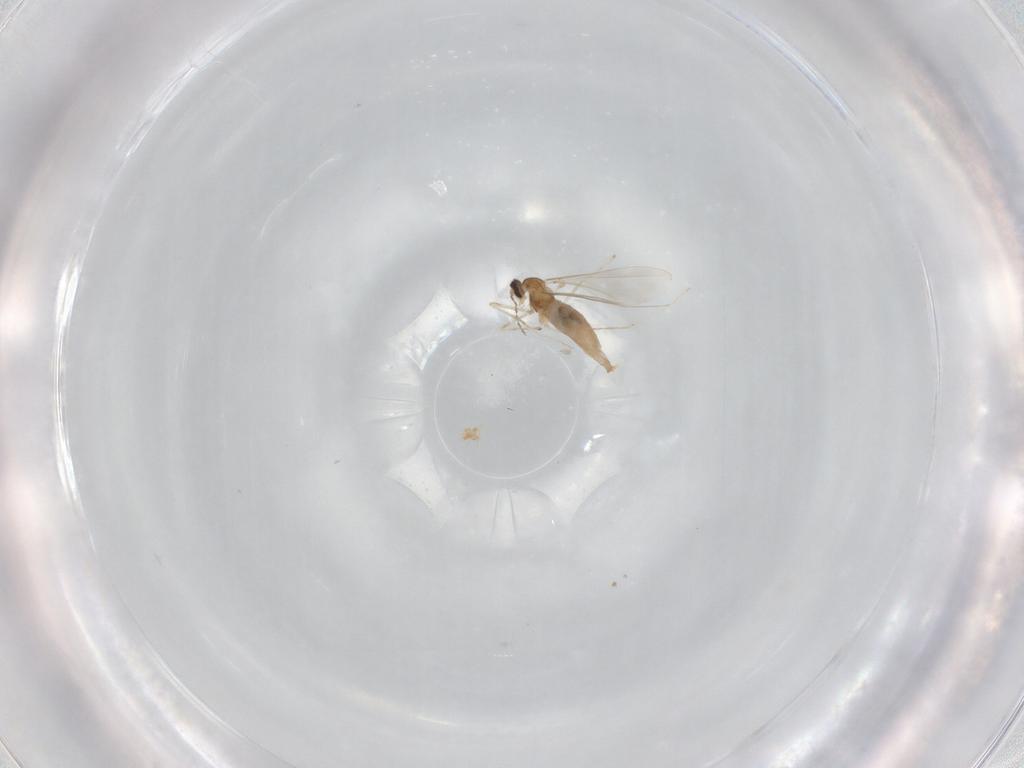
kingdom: Animalia
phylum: Arthropoda
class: Insecta
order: Diptera
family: Cecidomyiidae
